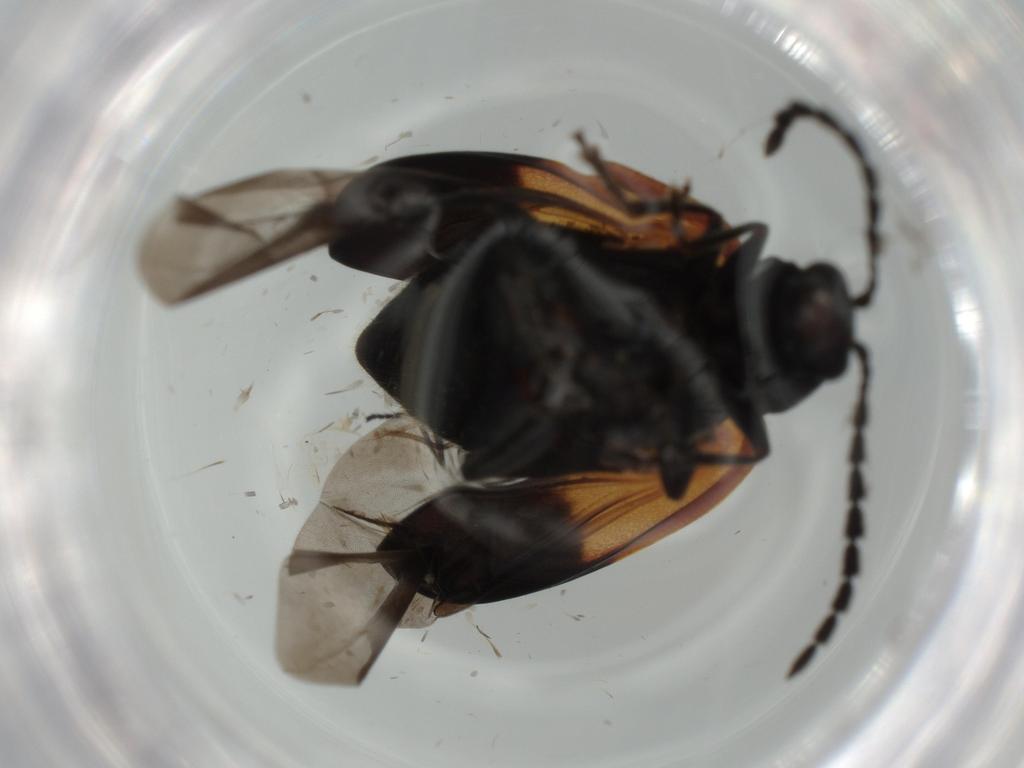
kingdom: Animalia
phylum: Arthropoda
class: Insecta
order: Coleoptera
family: Chrysomelidae
